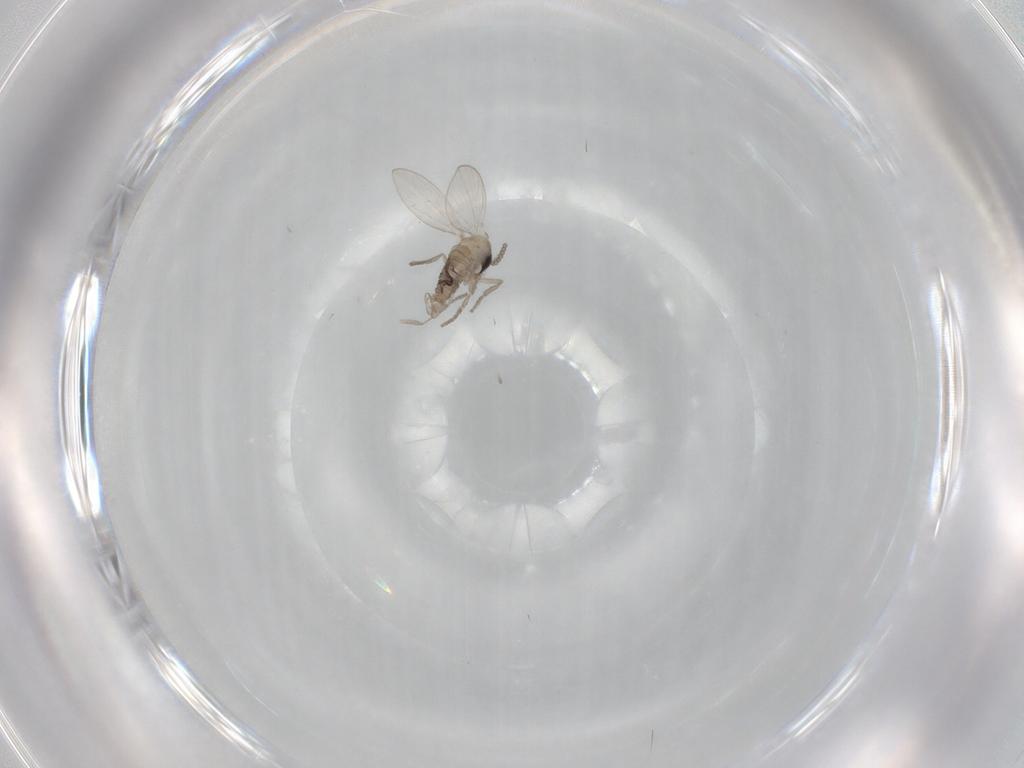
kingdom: Animalia
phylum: Arthropoda
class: Insecta
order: Diptera
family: Psychodidae
